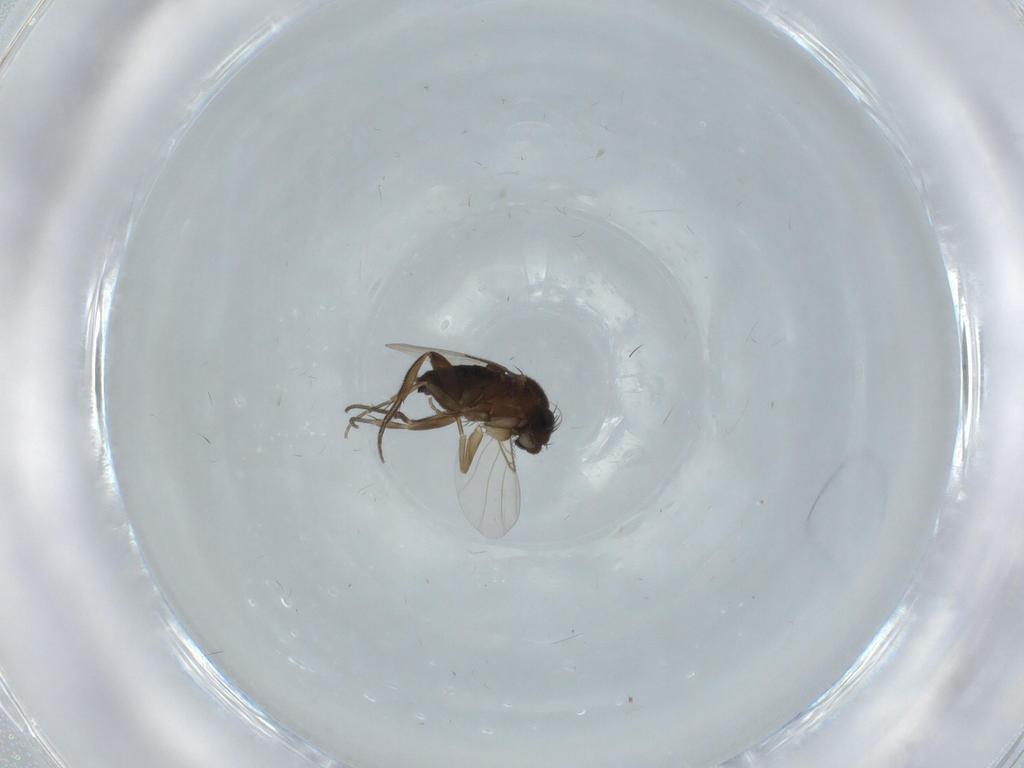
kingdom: Animalia
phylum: Arthropoda
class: Insecta
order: Diptera
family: Phoridae
